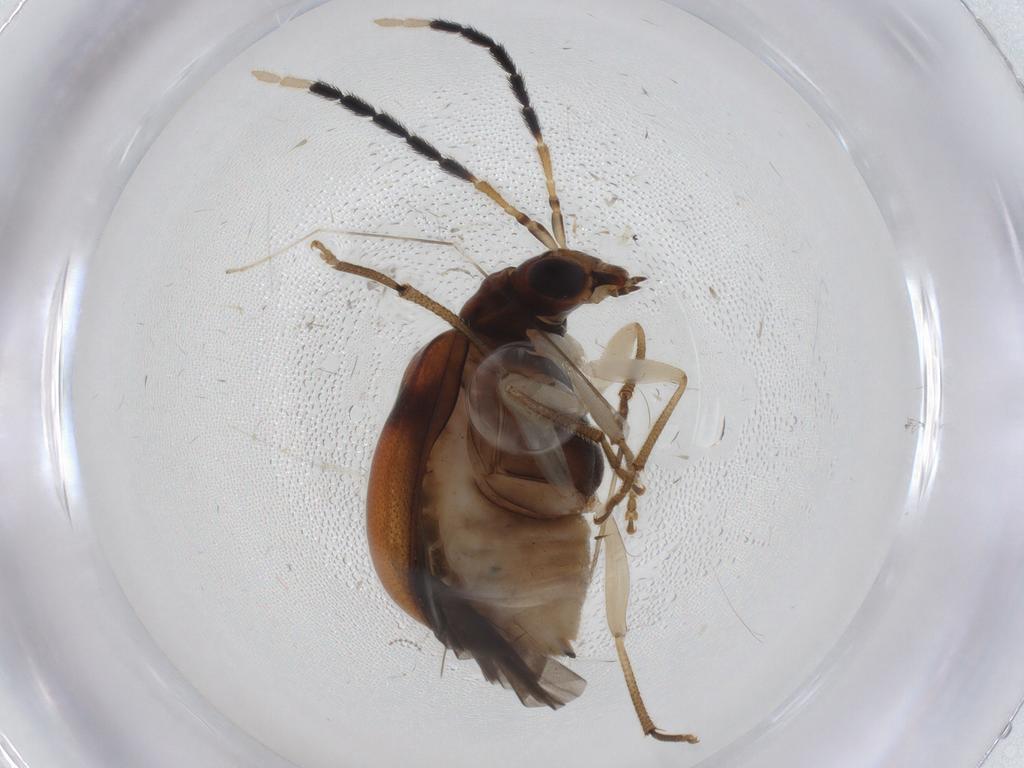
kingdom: Animalia
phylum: Arthropoda
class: Insecta
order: Coleoptera
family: Chrysomelidae
